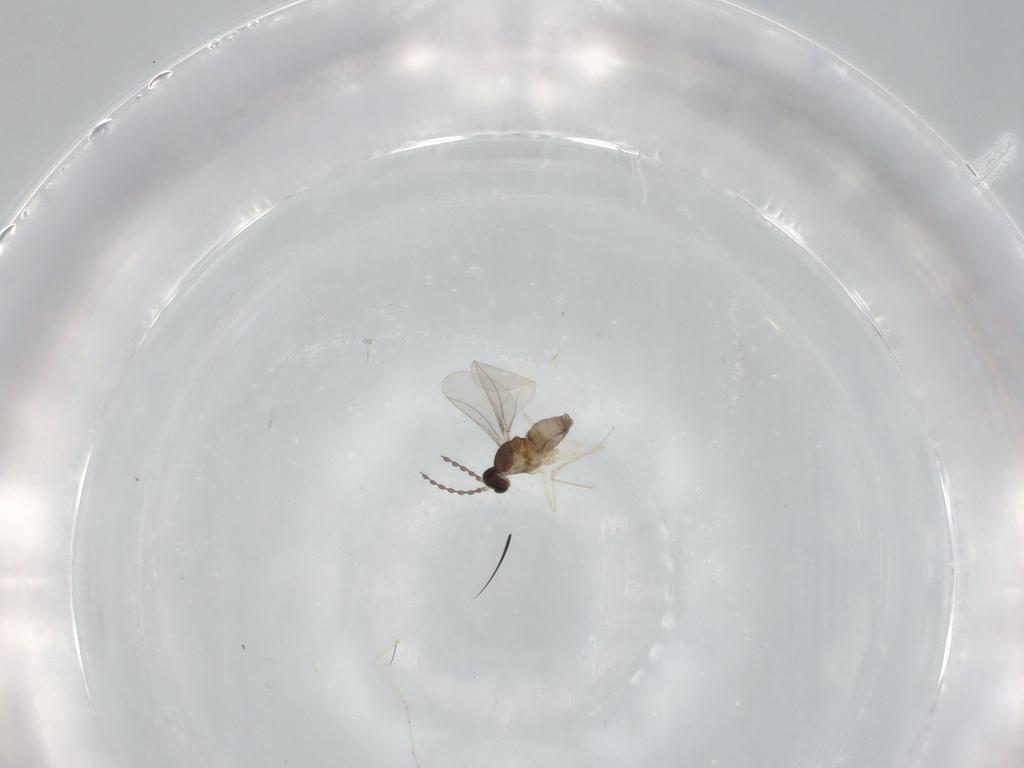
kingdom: Animalia
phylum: Arthropoda
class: Insecta
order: Diptera
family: Cecidomyiidae
